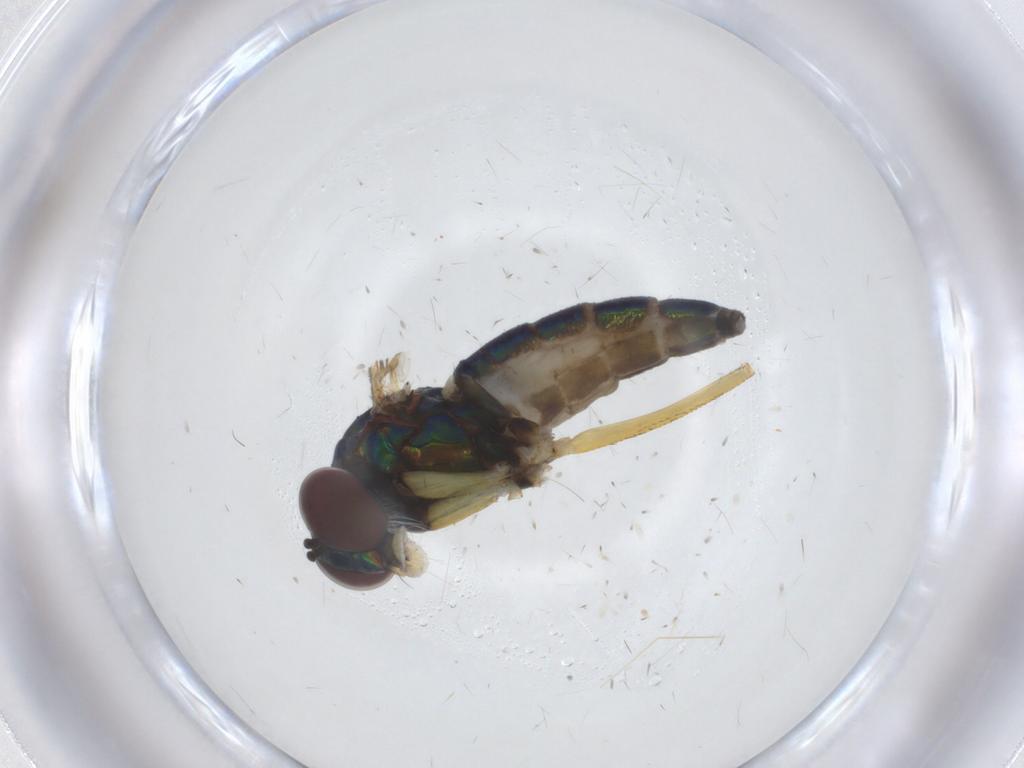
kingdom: Animalia
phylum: Arthropoda
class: Insecta
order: Diptera
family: Dolichopodidae
